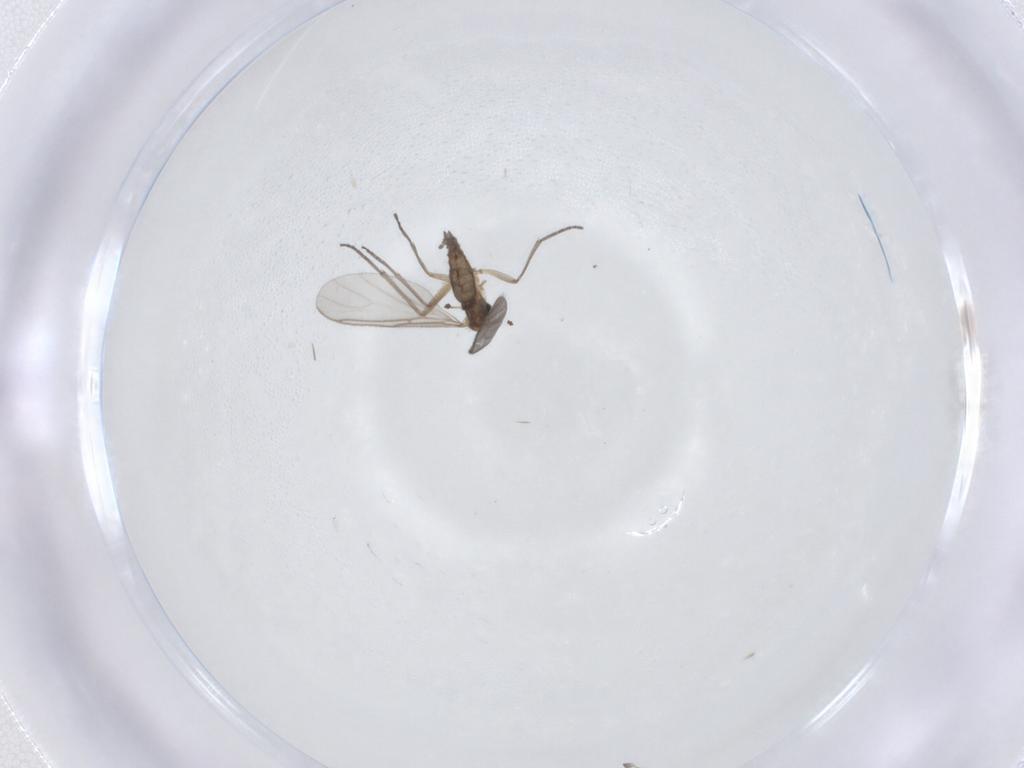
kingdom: Animalia
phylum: Arthropoda
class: Insecta
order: Diptera
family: Sciaridae
